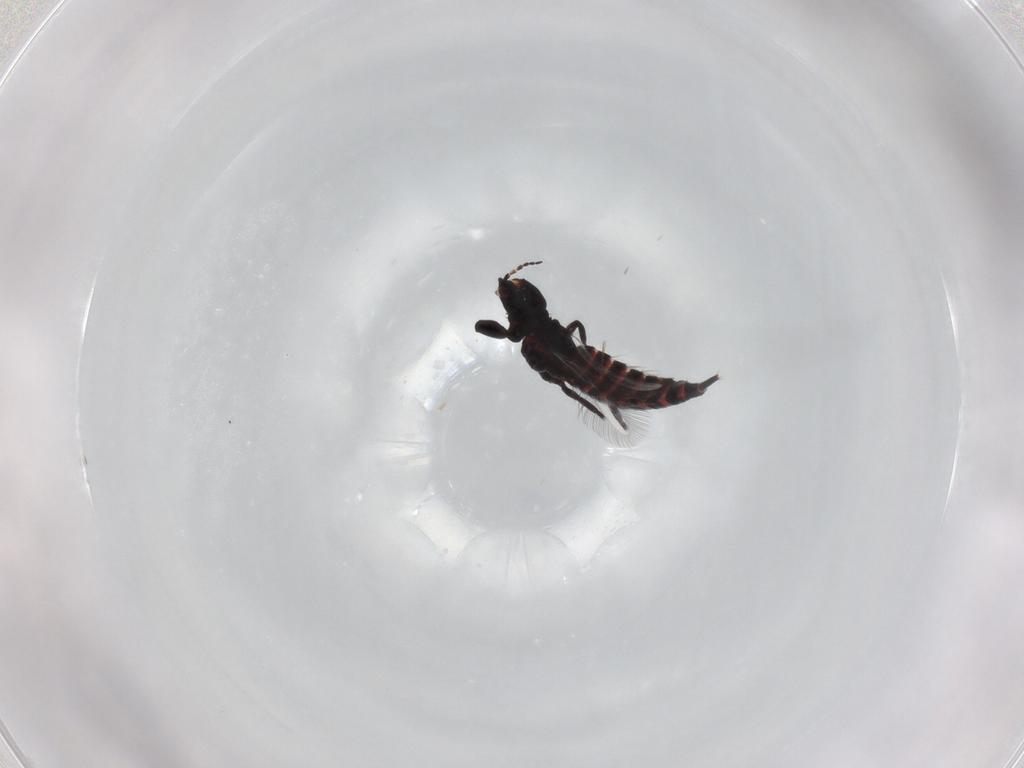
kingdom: Animalia
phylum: Arthropoda
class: Insecta
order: Thysanoptera
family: Phlaeothripidae
